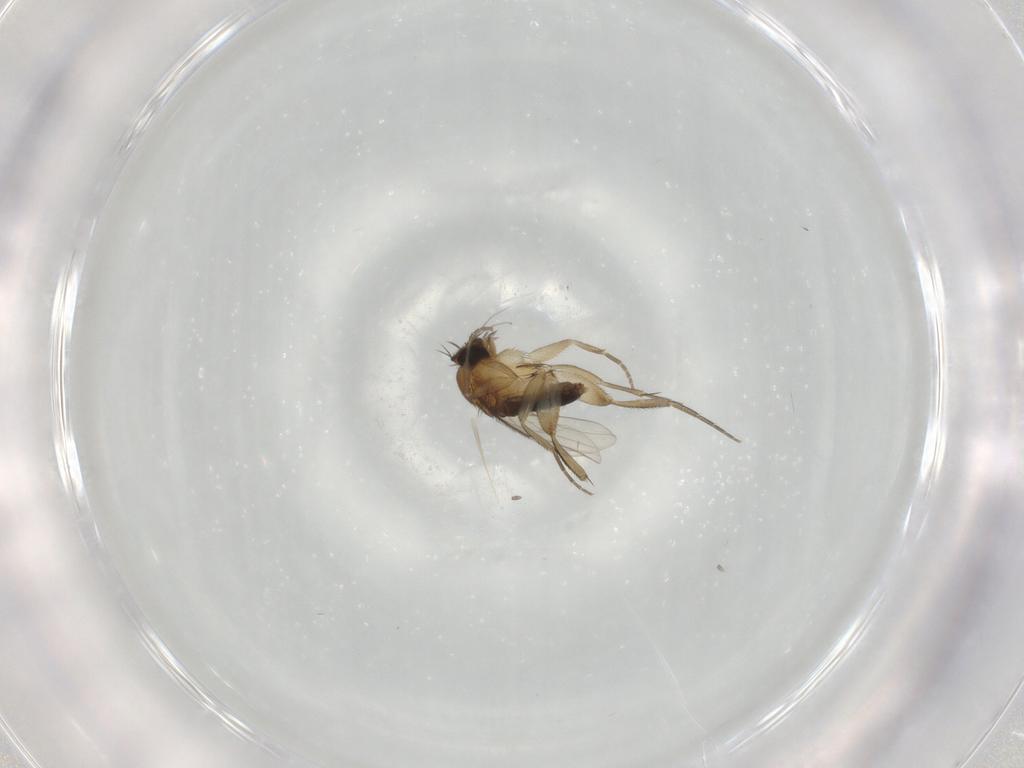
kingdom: Animalia
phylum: Arthropoda
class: Insecta
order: Diptera
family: Phoridae
